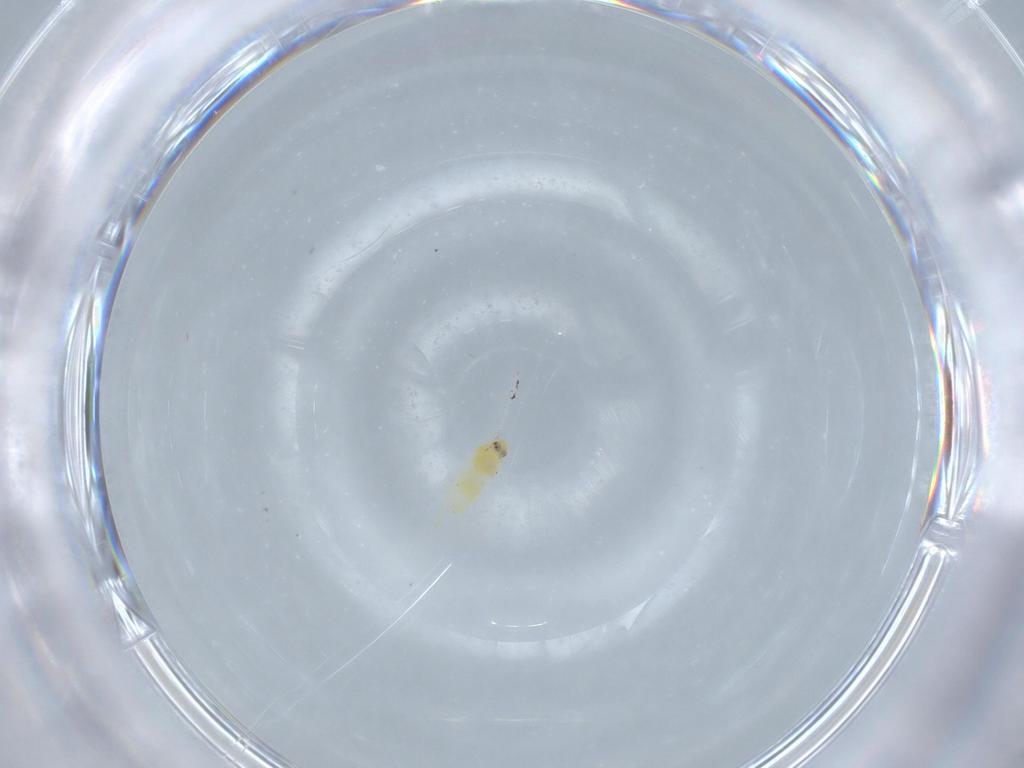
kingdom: Animalia
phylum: Arthropoda
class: Insecta
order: Hemiptera
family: Aleyrodidae
